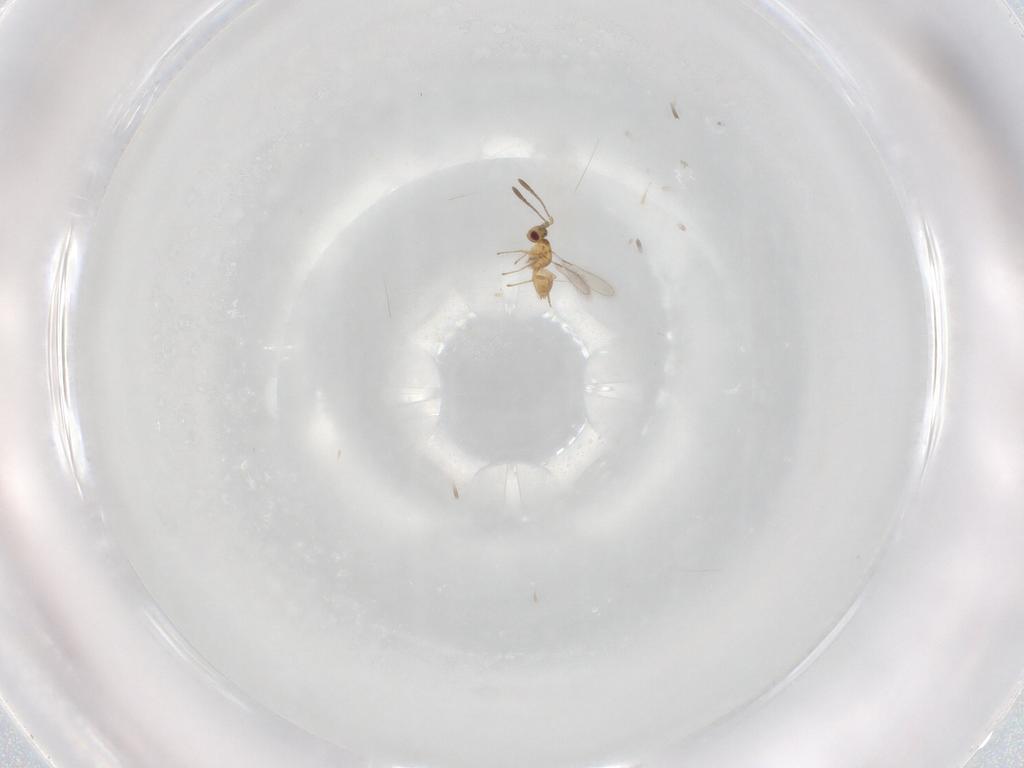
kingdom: Animalia
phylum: Arthropoda
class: Insecta
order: Hymenoptera
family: Mymaridae
